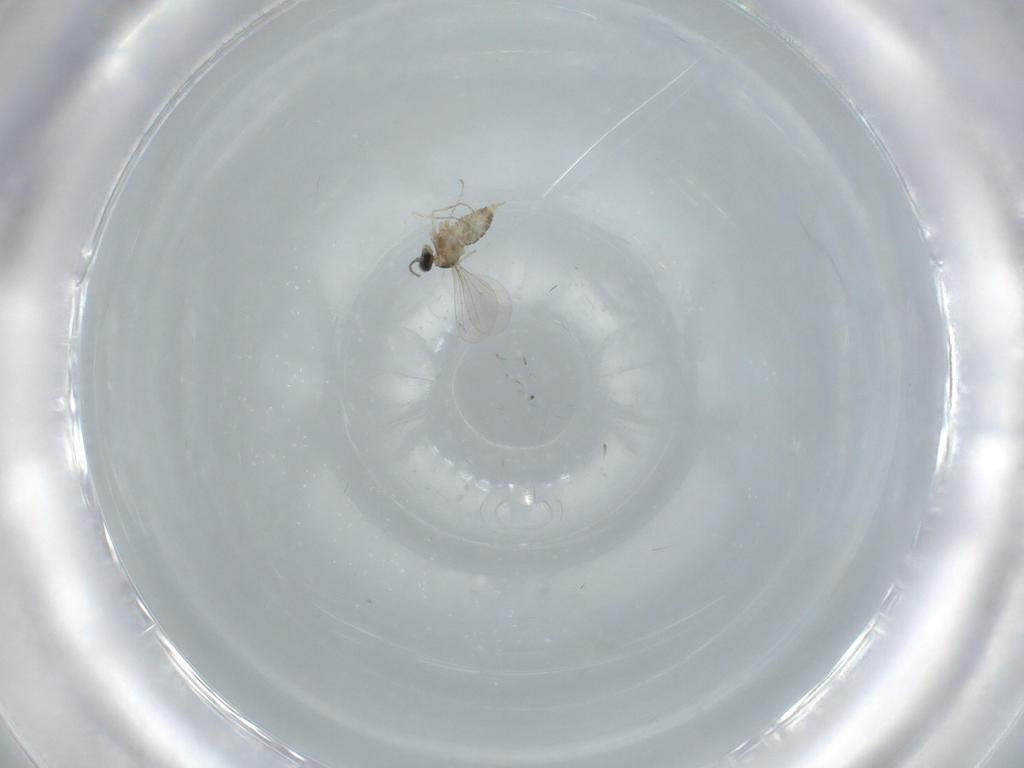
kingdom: Animalia
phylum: Arthropoda
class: Insecta
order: Diptera
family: Cecidomyiidae
